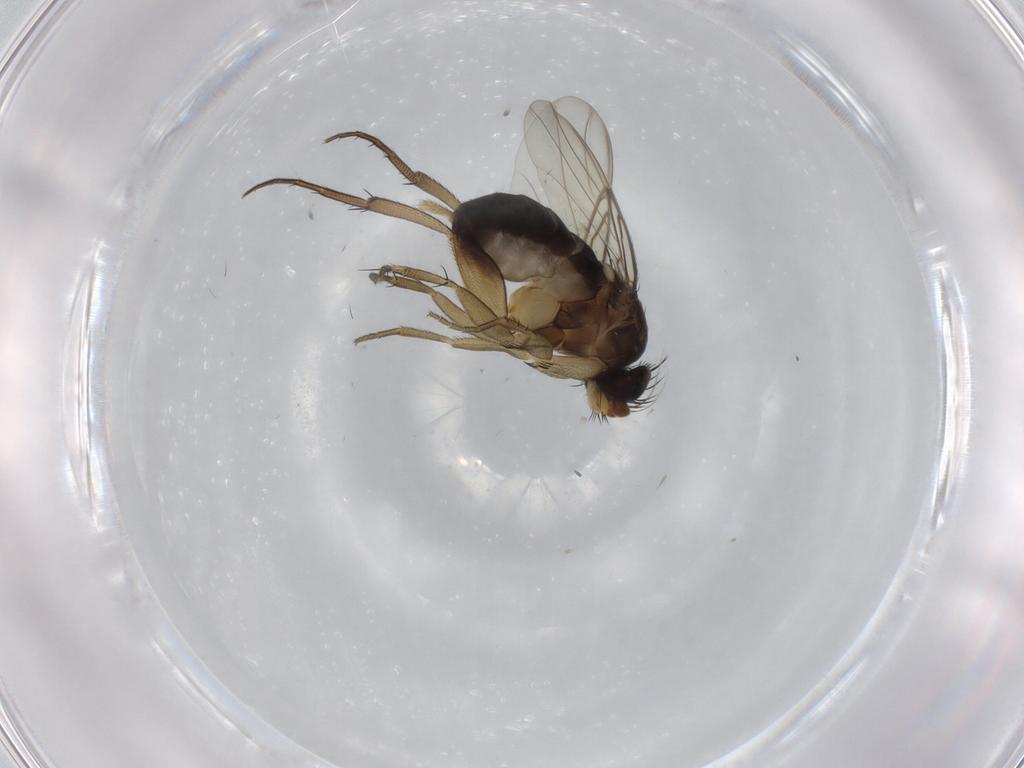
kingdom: Animalia
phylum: Arthropoda
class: Insecta
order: Diptera
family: Phoridae
